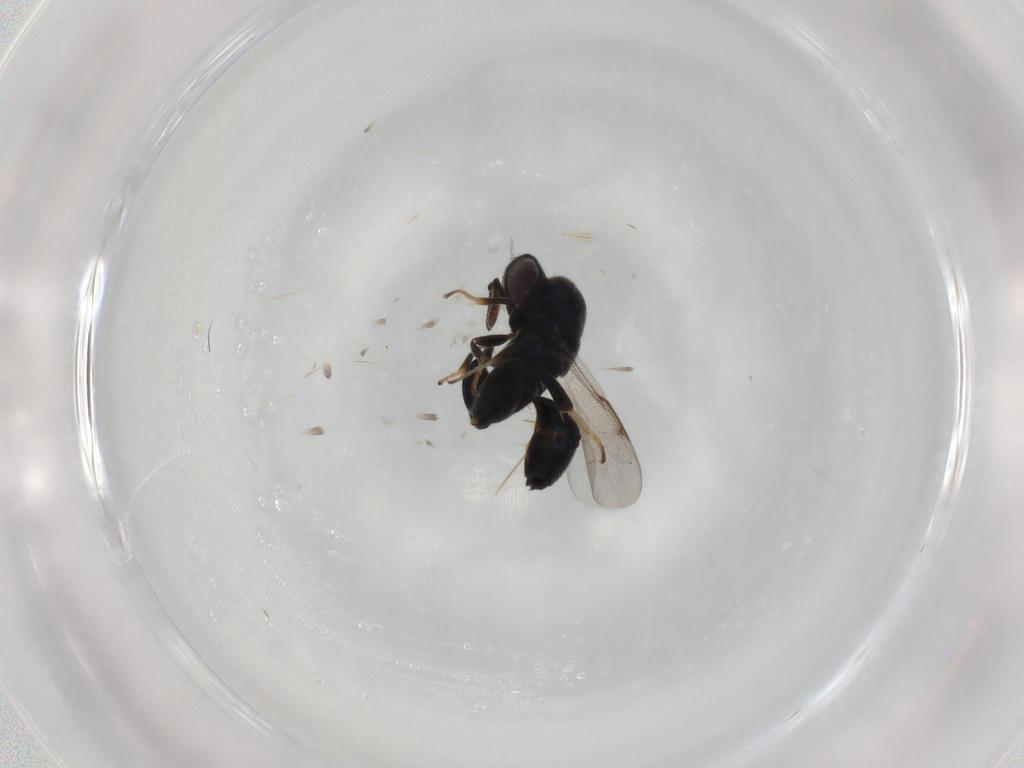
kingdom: Animalia
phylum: Arthropoda
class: Insecta
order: Hymenoptera
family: Torymidae
